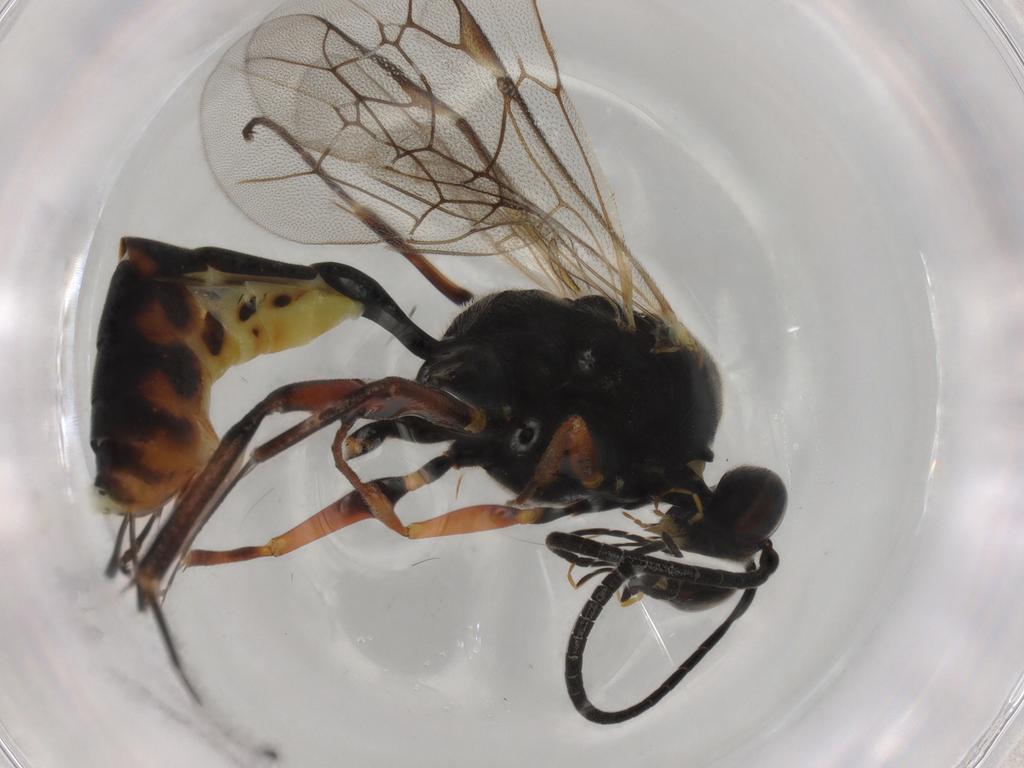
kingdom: Animalia
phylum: Arthropoda
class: Insecta
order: Hymenoptera
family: Ichneumonidae
